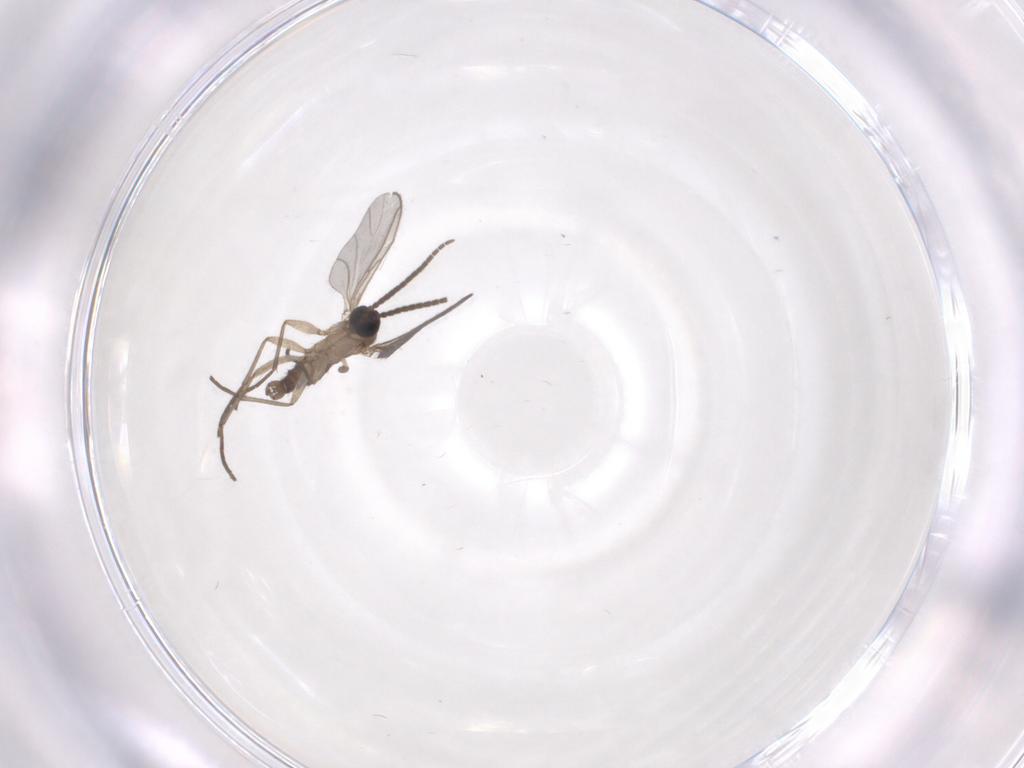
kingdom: Animalia
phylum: Arthropoda
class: Insecta
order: Diptera
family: Sciaridae
